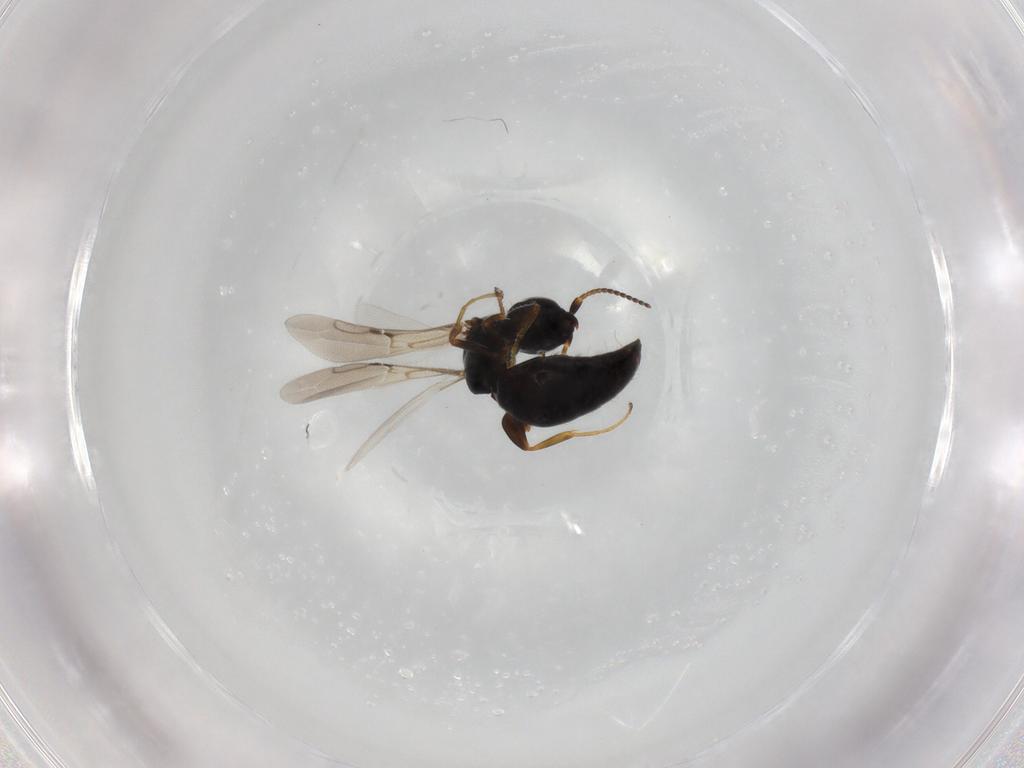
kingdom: Animalia
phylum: Arthropoda
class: Insecta
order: Hymenoptera
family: Bethylidae
